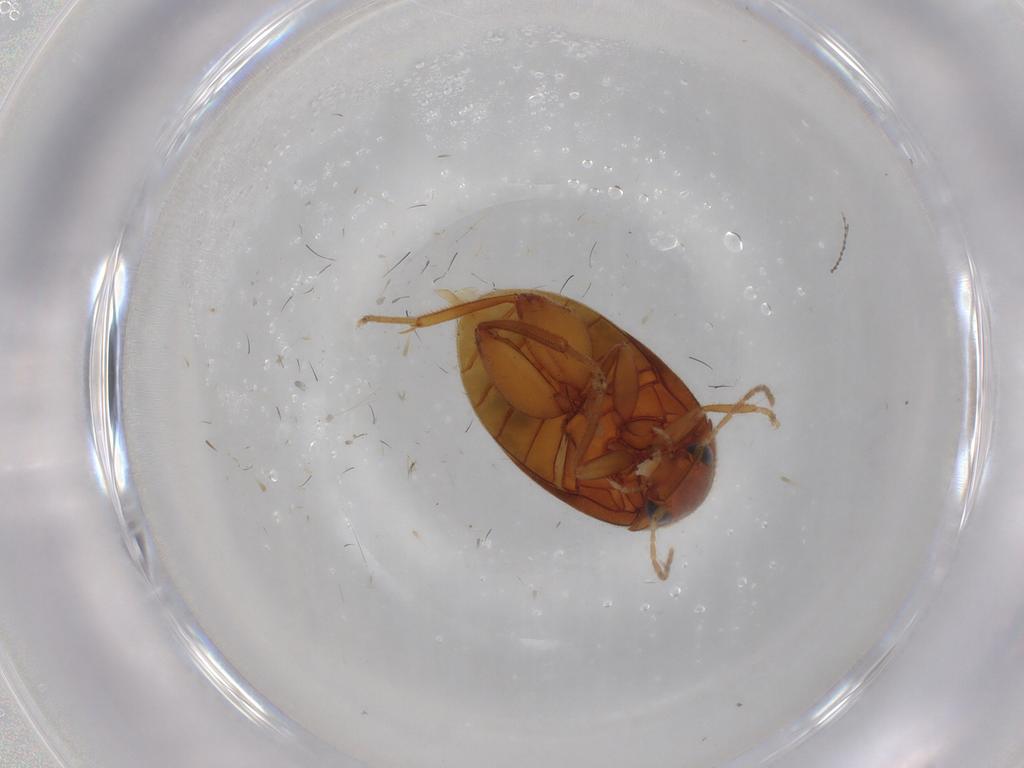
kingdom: Animalia
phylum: Arthropoda
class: Insecta
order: Coleoptera
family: Scirtidae
